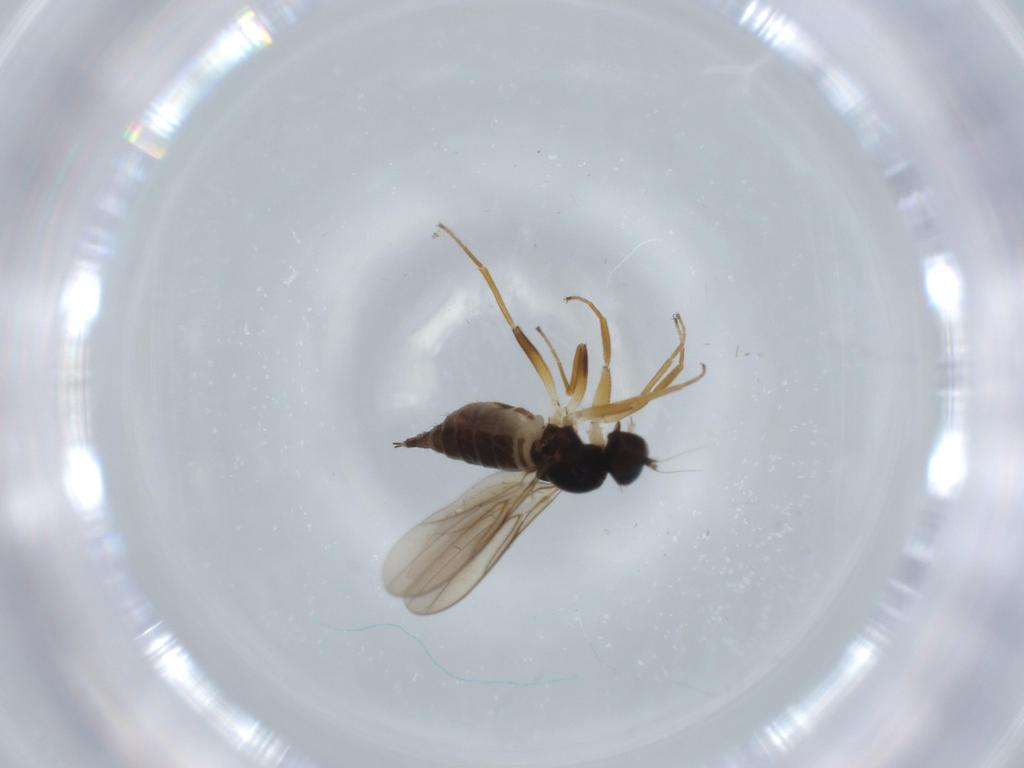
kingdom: Animalia
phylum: Arthropoda
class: Insecta
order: Diptera
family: Hybotidae
